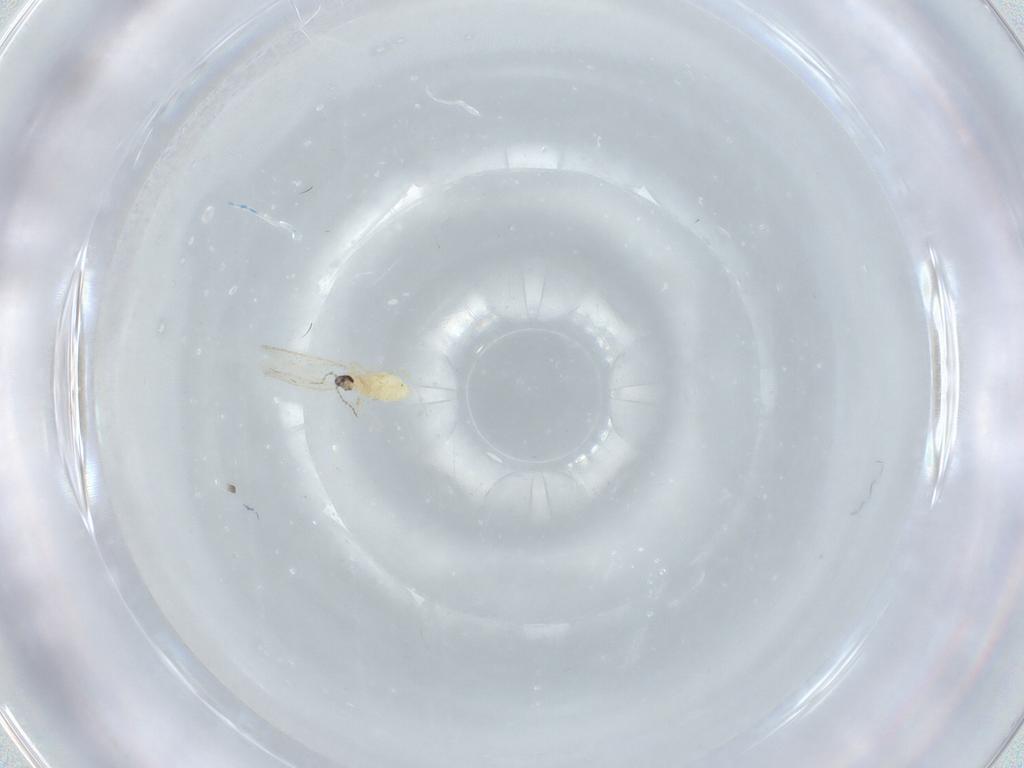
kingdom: Animalia
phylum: Arthropoda
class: Insecta
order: Diptera
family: Cecidomyiidae
